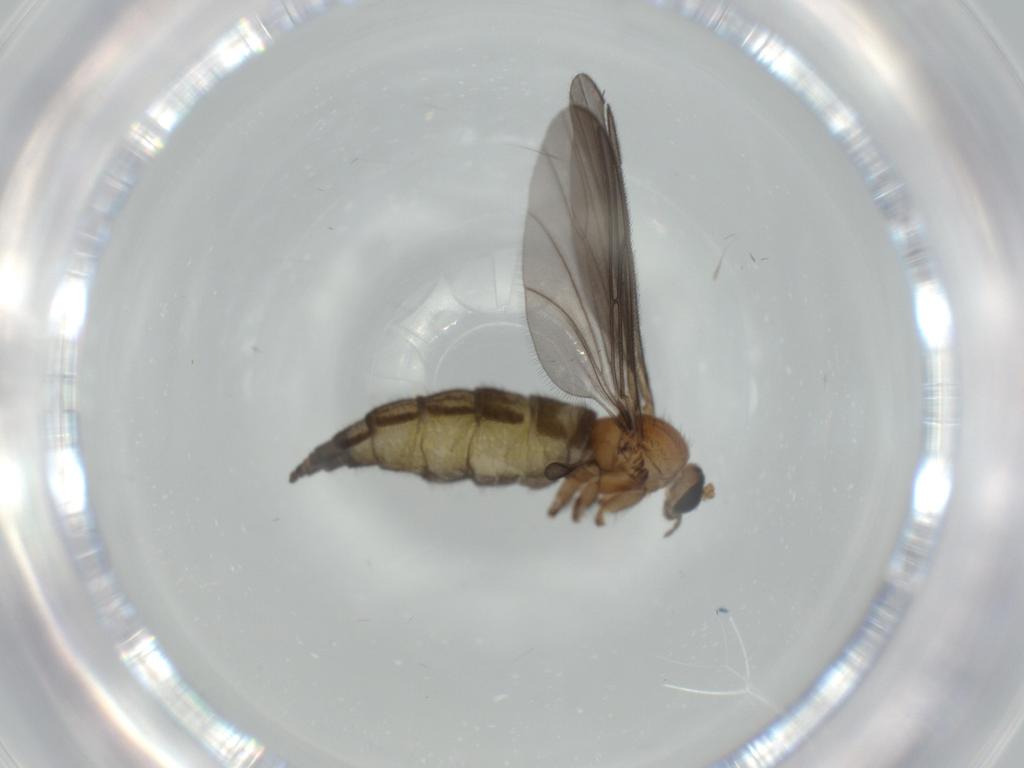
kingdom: Animalia
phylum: Arthropoda
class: Insecta
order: Diptera
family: Sciaridae
